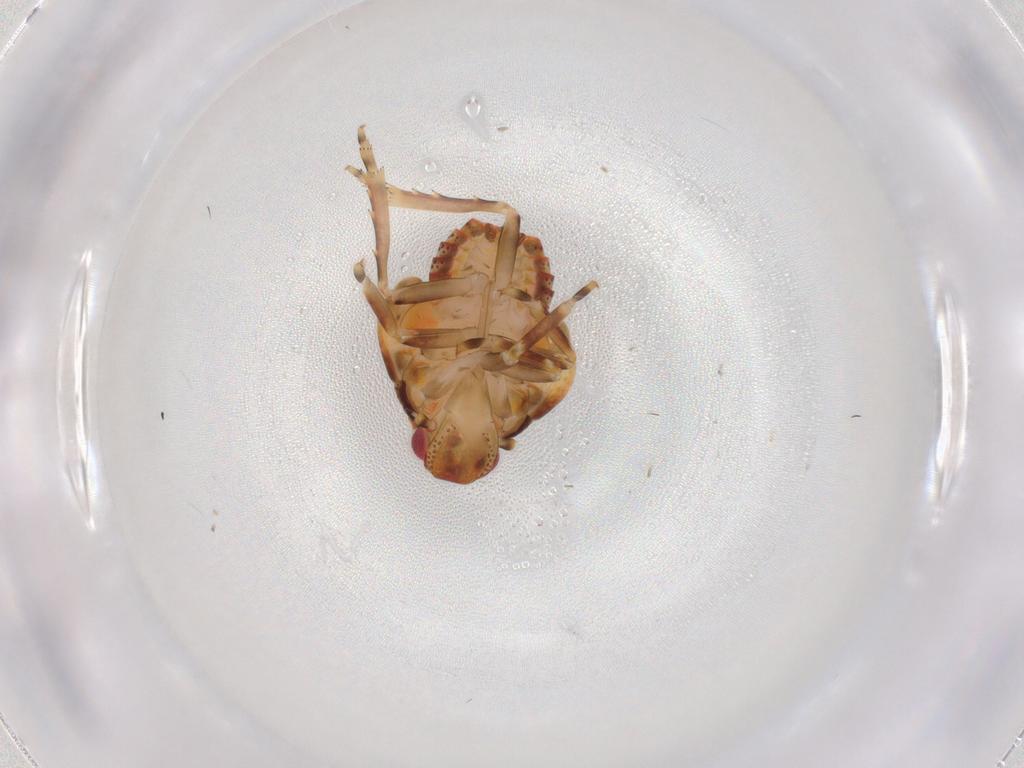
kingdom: Animalia
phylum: Arthropoda
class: Insecta
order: Hemiptera
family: Flatidae
